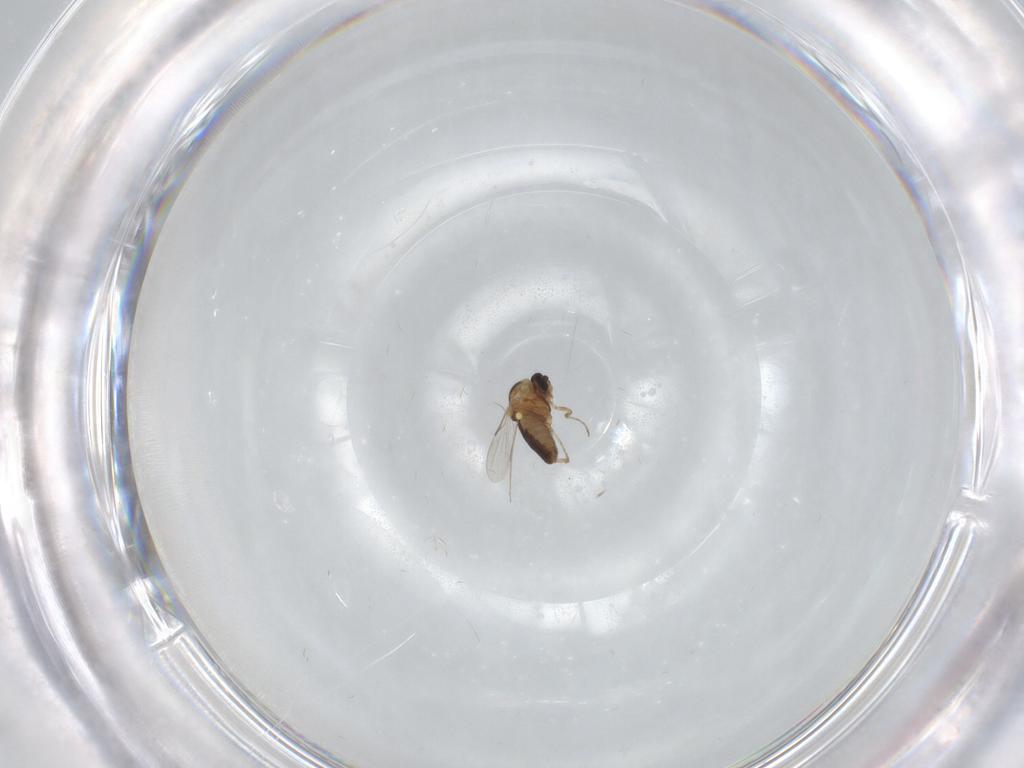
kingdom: Animalia
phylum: Arthropoda
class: Insecta
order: Diptera
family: Ceratopogonidae
